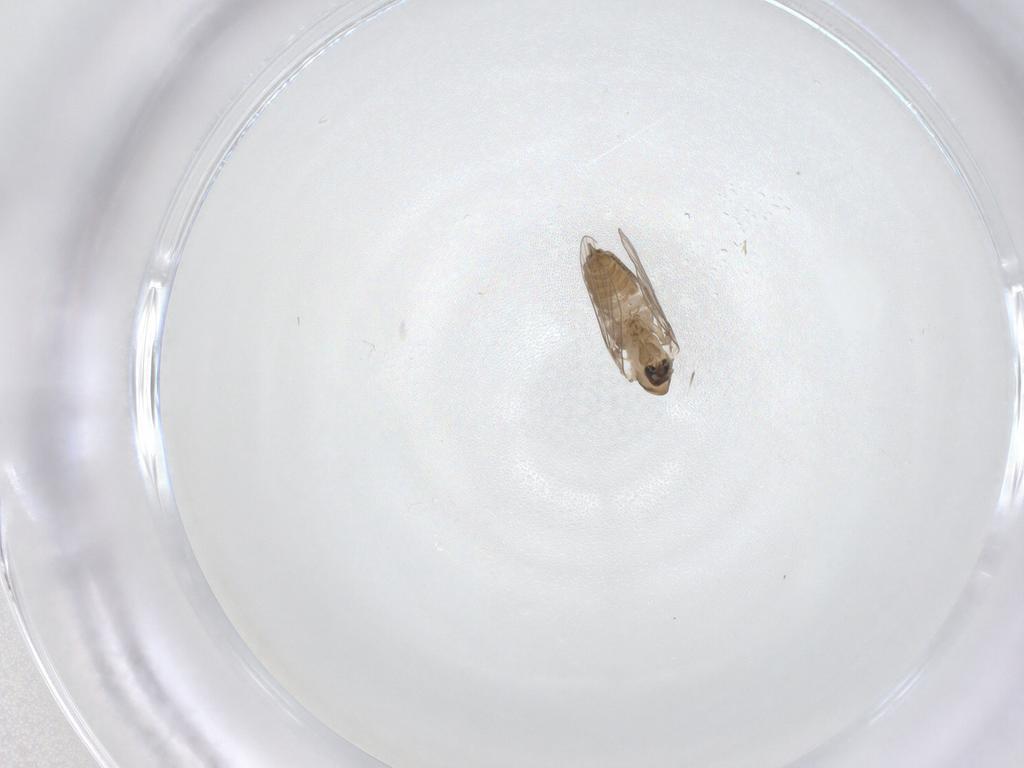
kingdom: Animalia
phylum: Arthropoda
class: Insecta
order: Diptera
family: Psychodidae
